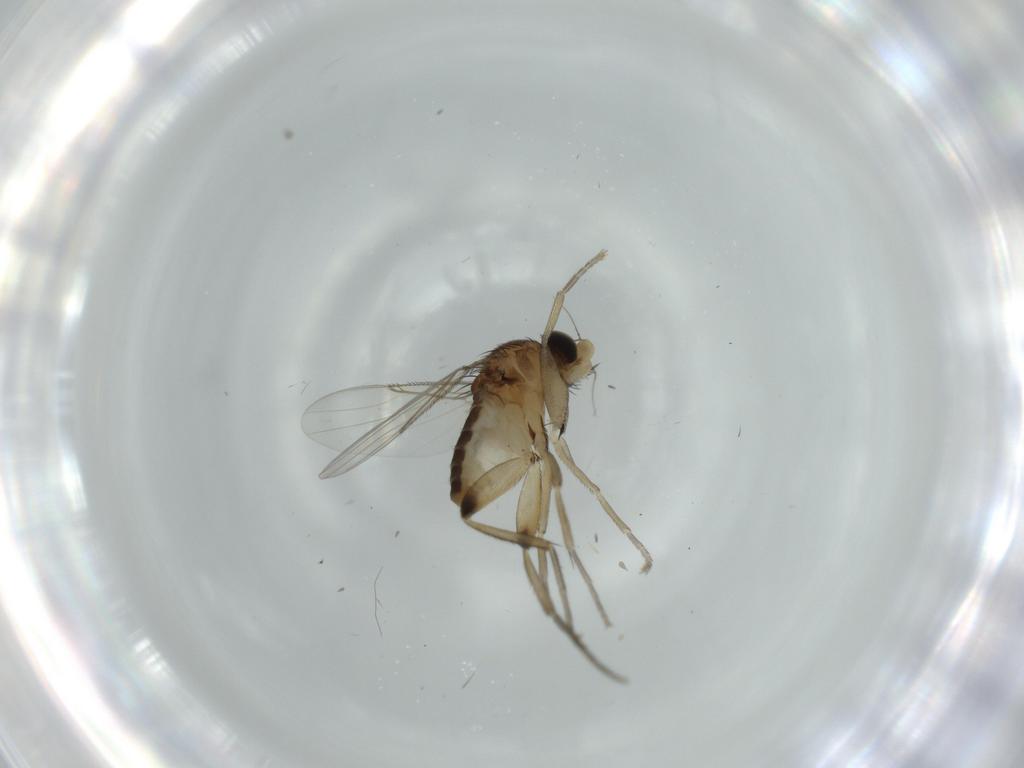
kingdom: Animalia
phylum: Arthropoda
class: Insecta
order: Diptera
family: Phoridae
